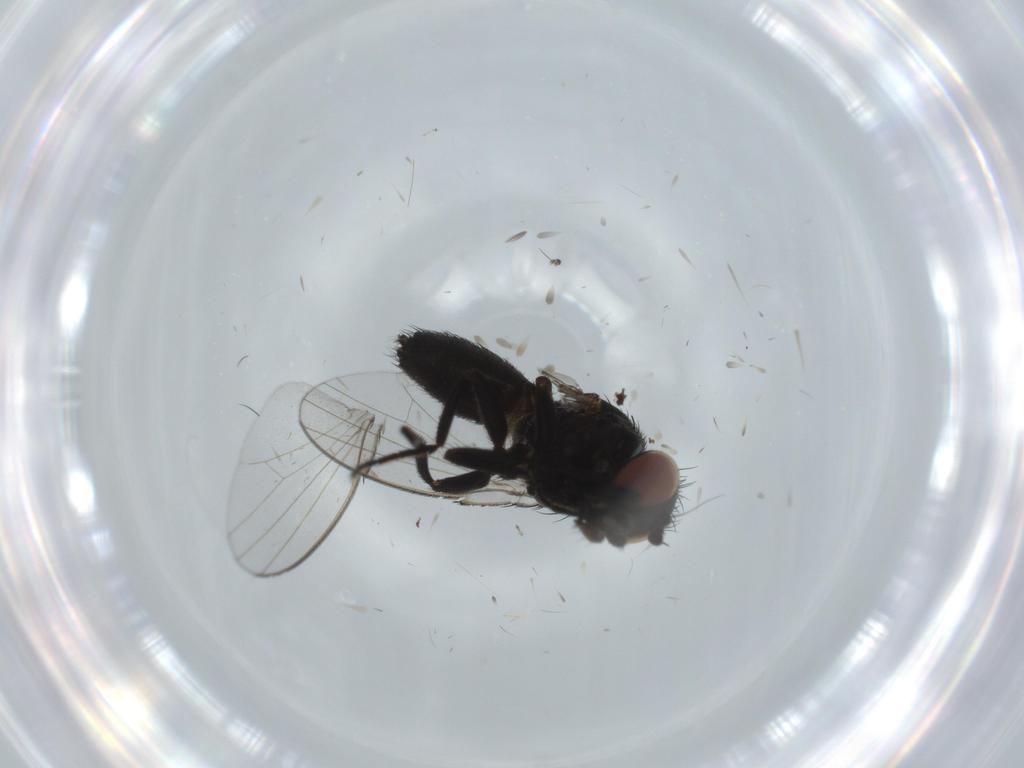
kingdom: Animalia
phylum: Arthropoda
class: Insecta
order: Diptera
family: Milichiidae
